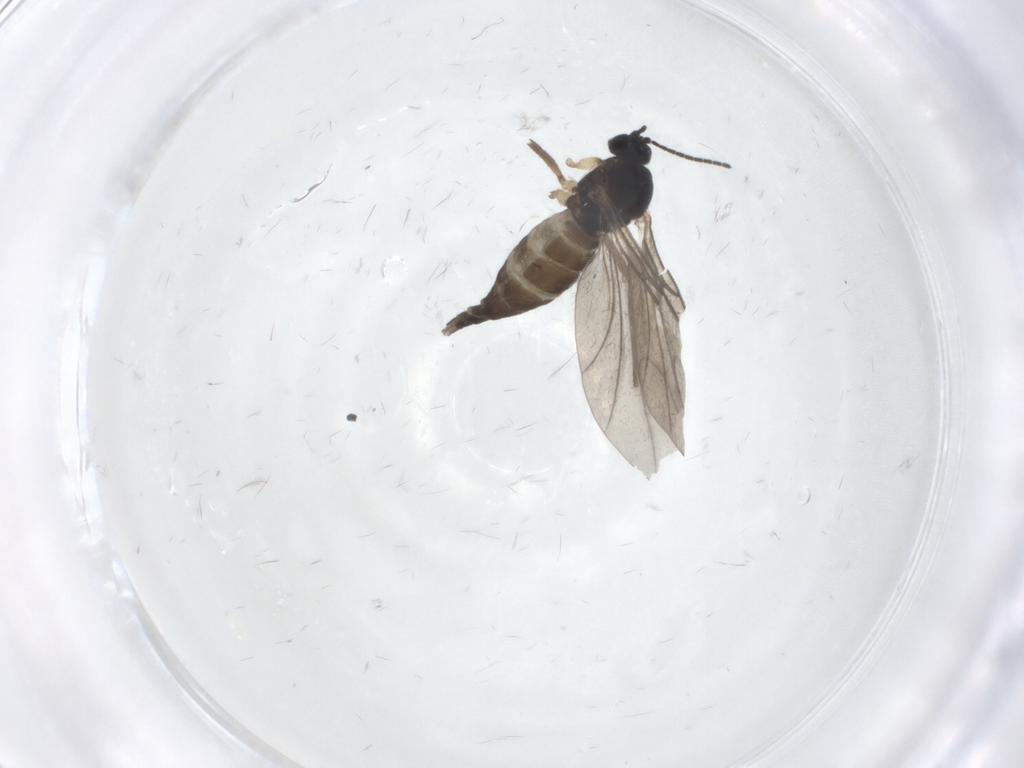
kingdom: Animalia
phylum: Arthropoda
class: Insecta
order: Diptera
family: Sciaridae
